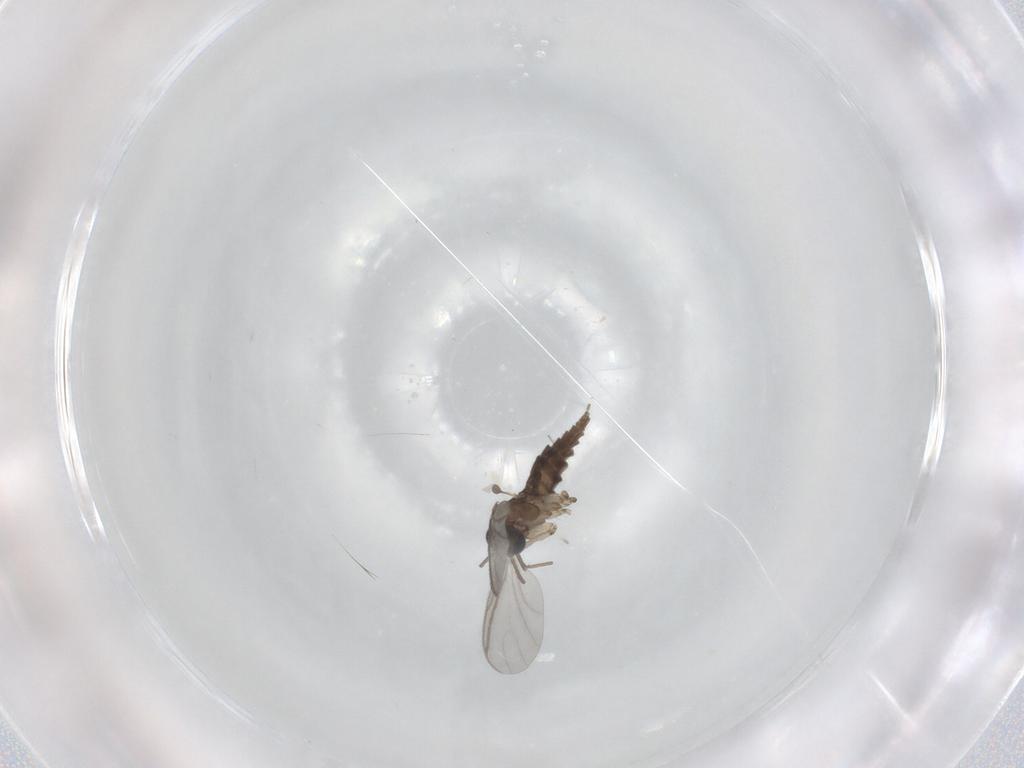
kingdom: Animalia
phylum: Arthropoda
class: Insecta
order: Diptera
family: Sciaridae
